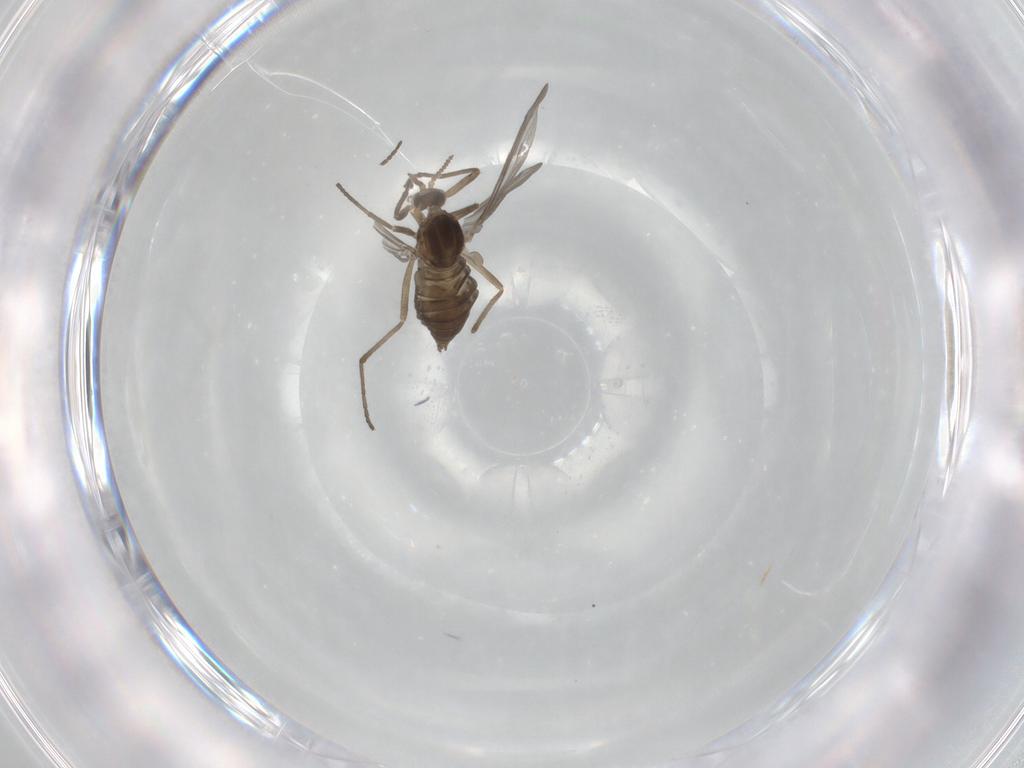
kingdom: Animalia
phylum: Arthropoda
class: Insecta
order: Diptera
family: Cecidomyiidae
